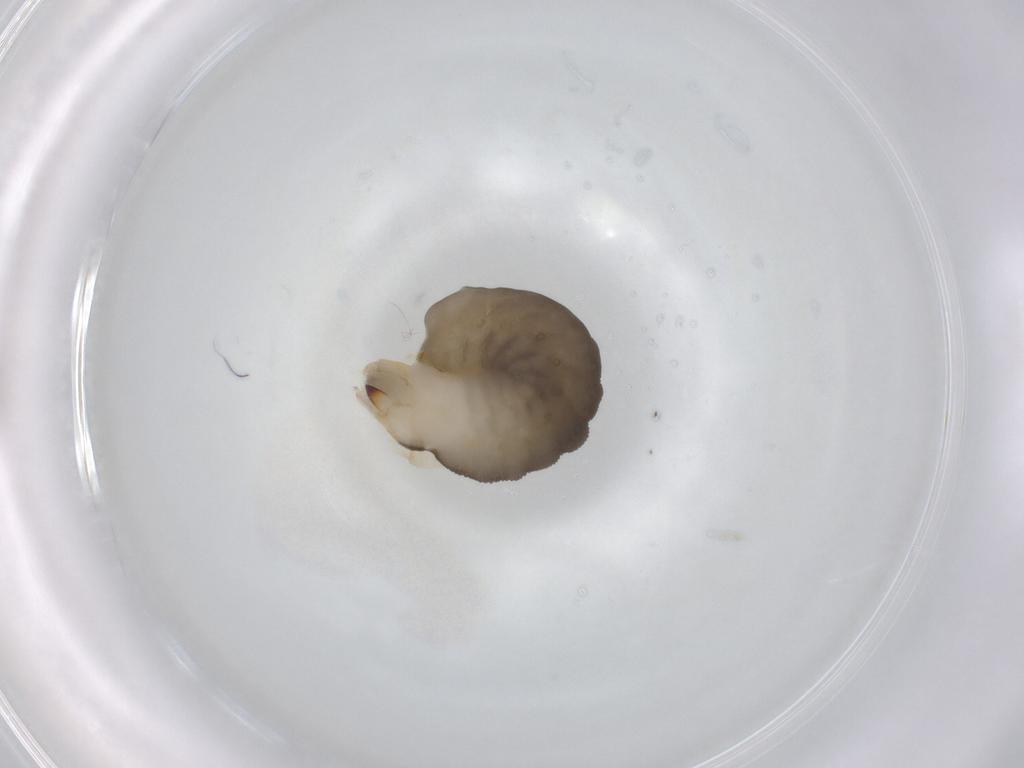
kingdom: Animalia
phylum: Arthropoda
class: Insecta
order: Hymenoptera
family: Dryinidae
